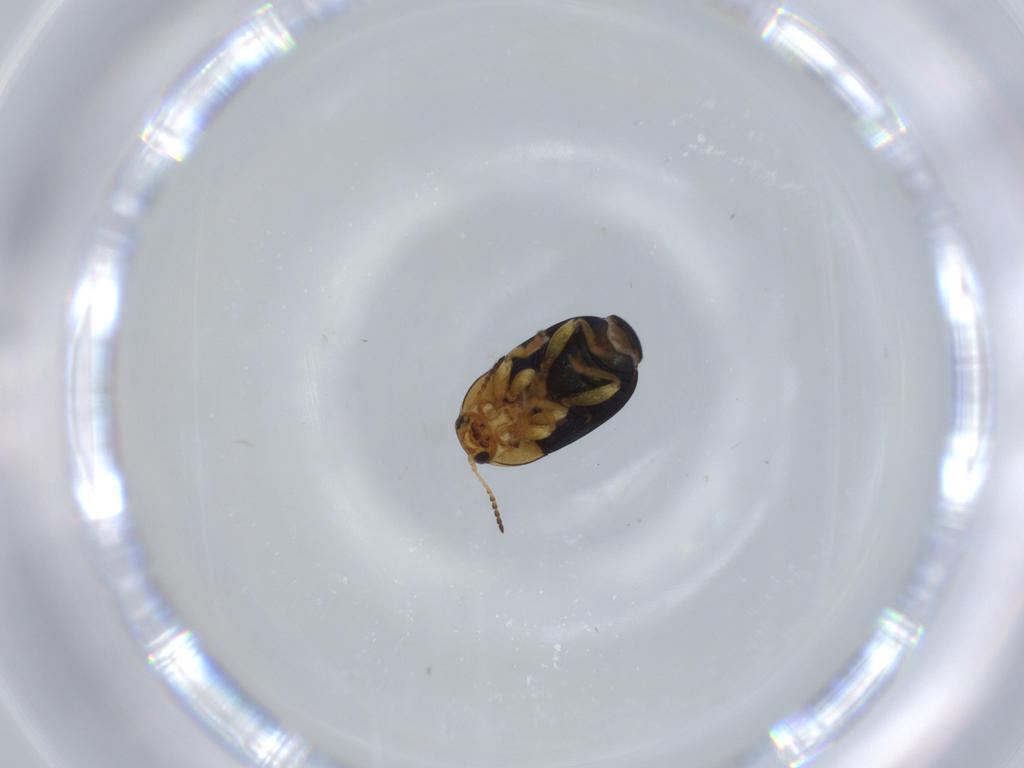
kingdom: Animalia
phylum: Arthropoda
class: Insecta
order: Coleoptera
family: Chrysomelidae
